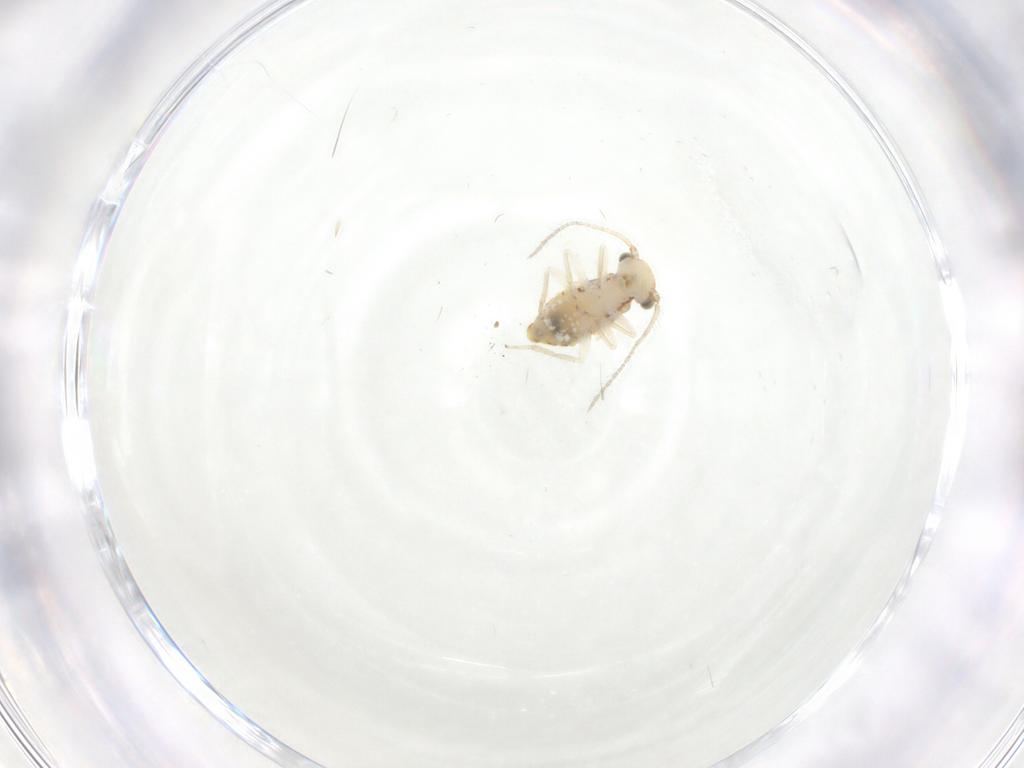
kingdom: Animalia
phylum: Arthropoda
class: Insecta
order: Psocodea
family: Caeciliusidae
